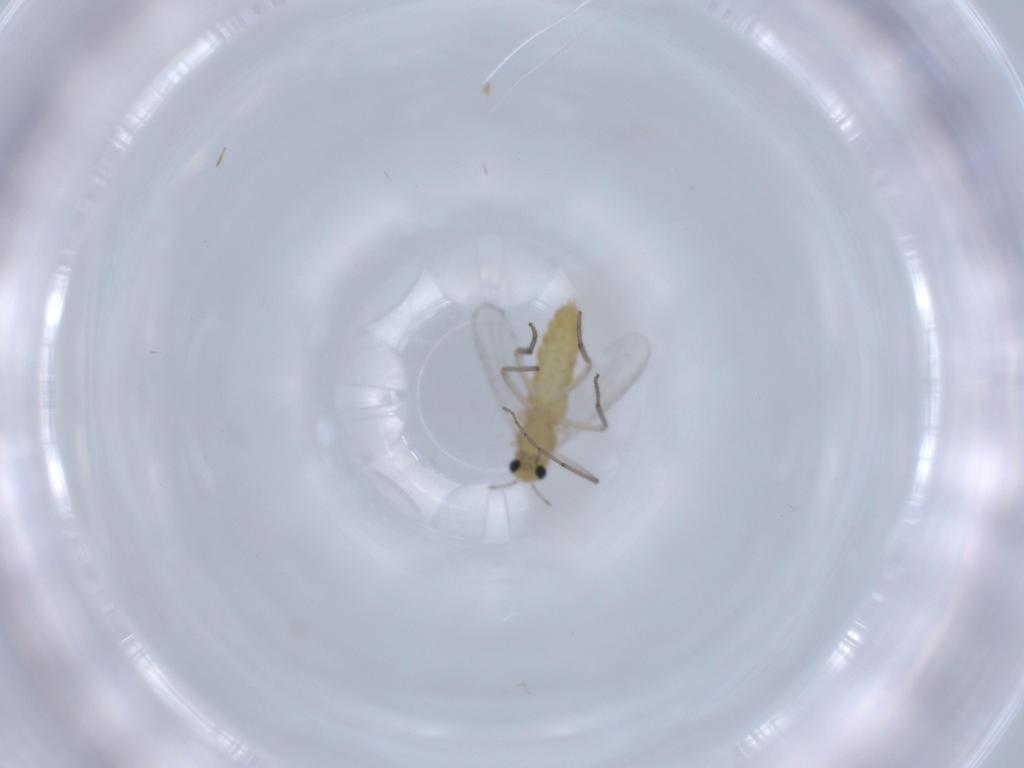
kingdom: Animalia
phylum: Arthropoda
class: Insecta
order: Diptera
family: Chironomidae
